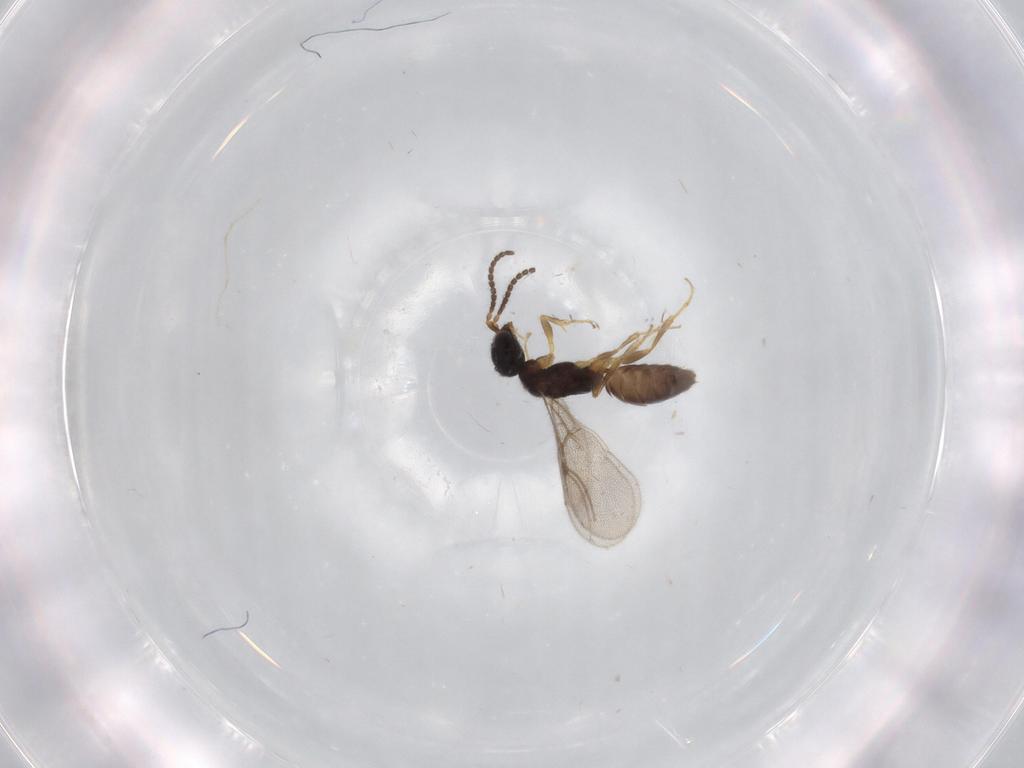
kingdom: Animalia
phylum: Arthropoda
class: Insecta
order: Hymenoptera
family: Bethylidae
